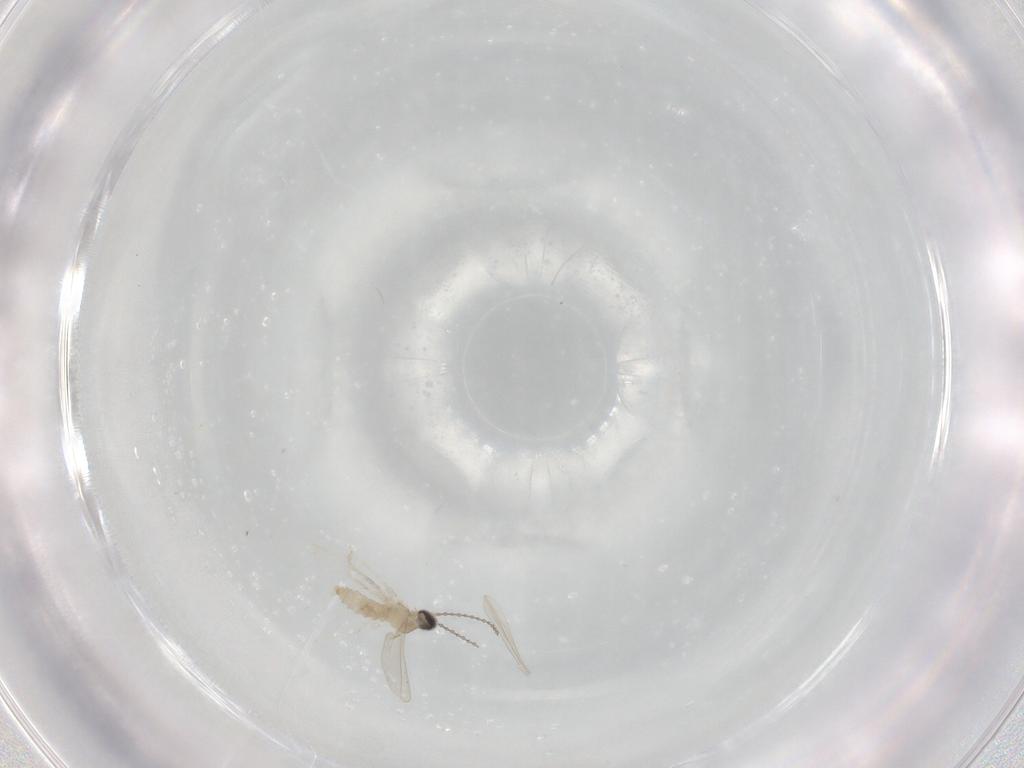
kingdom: Animalia
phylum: Arthropoda
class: Insecta
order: Diptera
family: Cecidomyiidae
